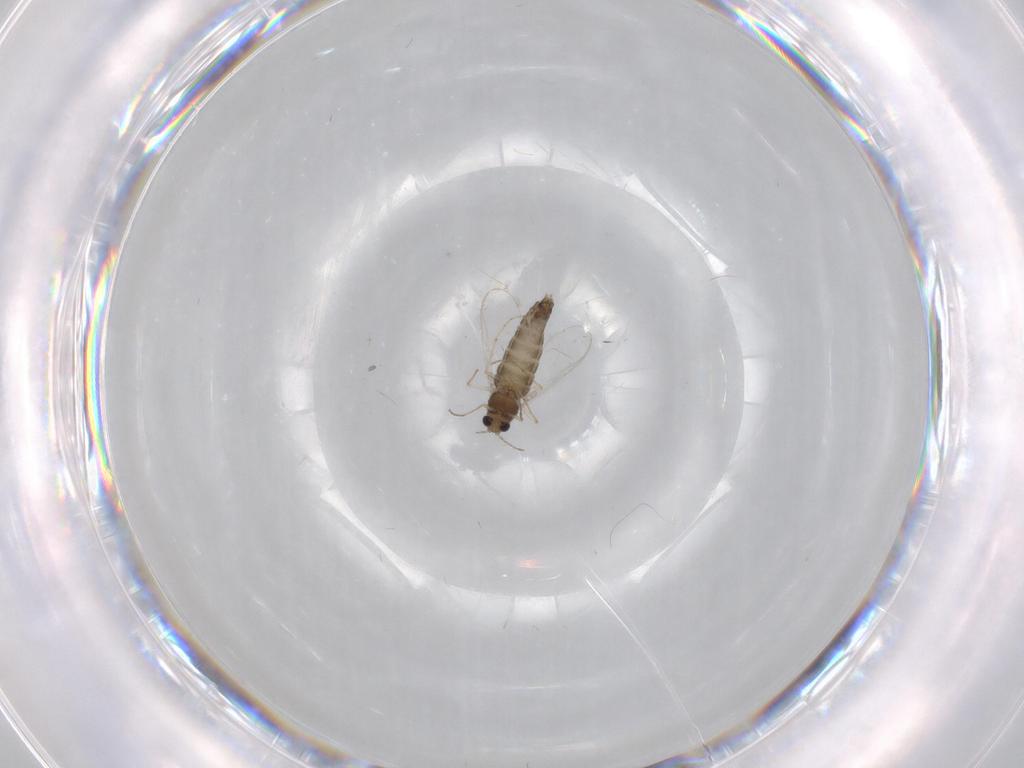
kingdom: Animalia
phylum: Arthropoda
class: Insecta
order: Diptera
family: Chironomidae
